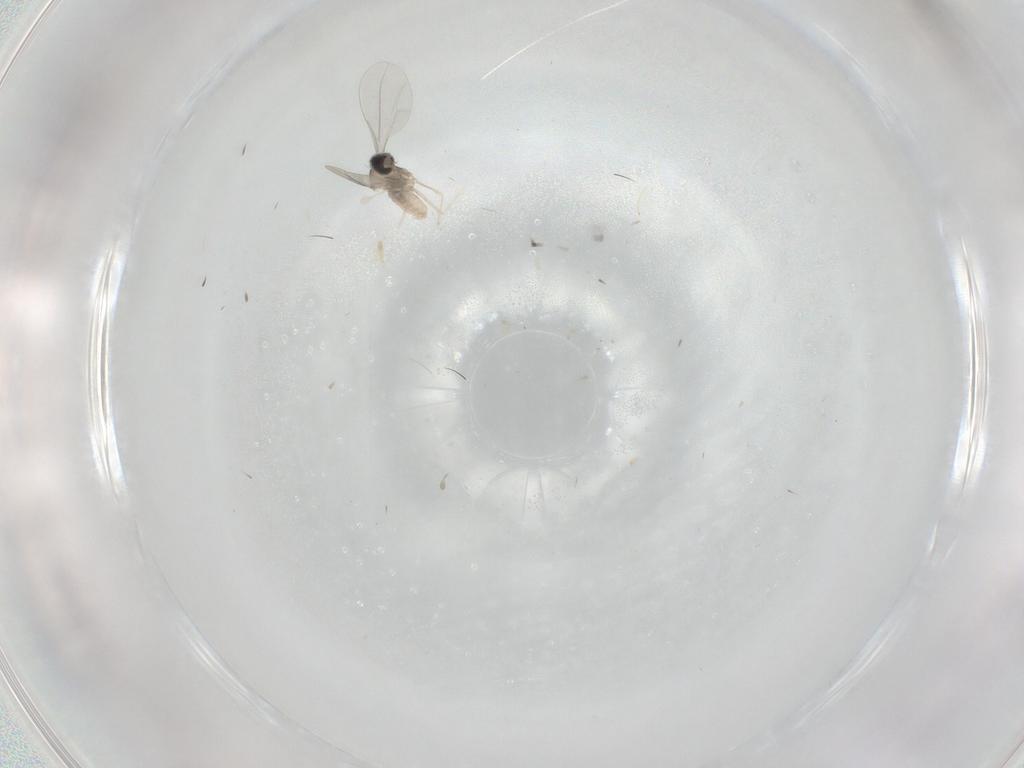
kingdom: Animalia
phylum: Arthropoda
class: Insecta
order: Diptera
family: Cecidomyiidae
